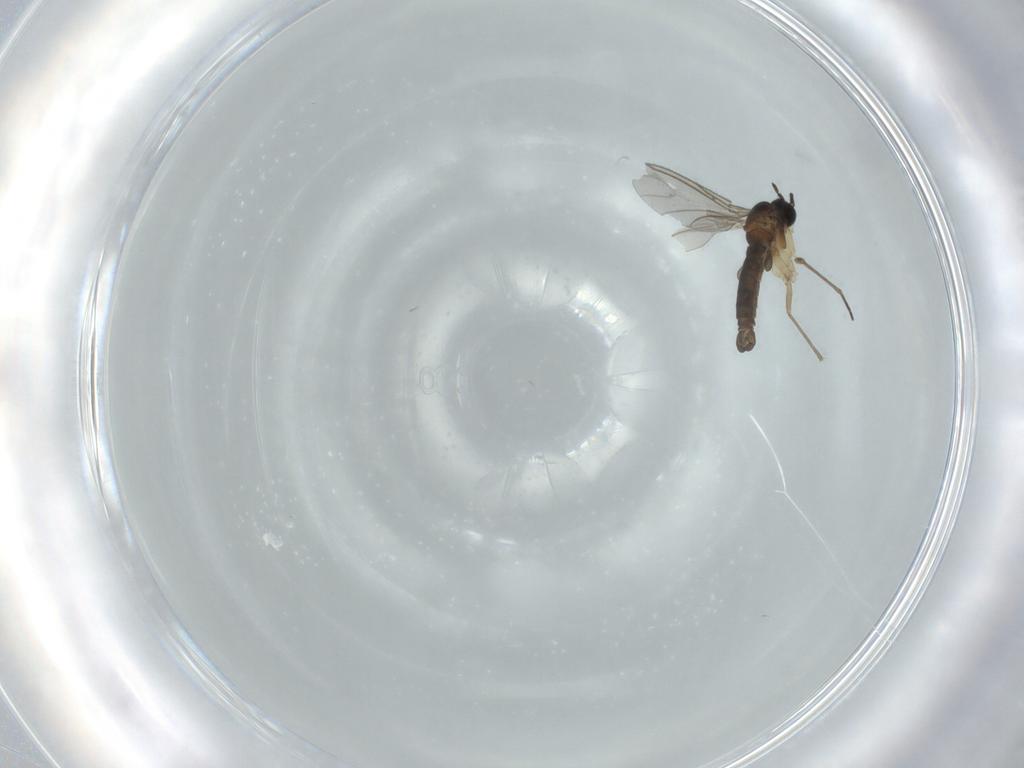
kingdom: Animalia
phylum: Arthropoda
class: Insecta
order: Diptera
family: Sciaridae
